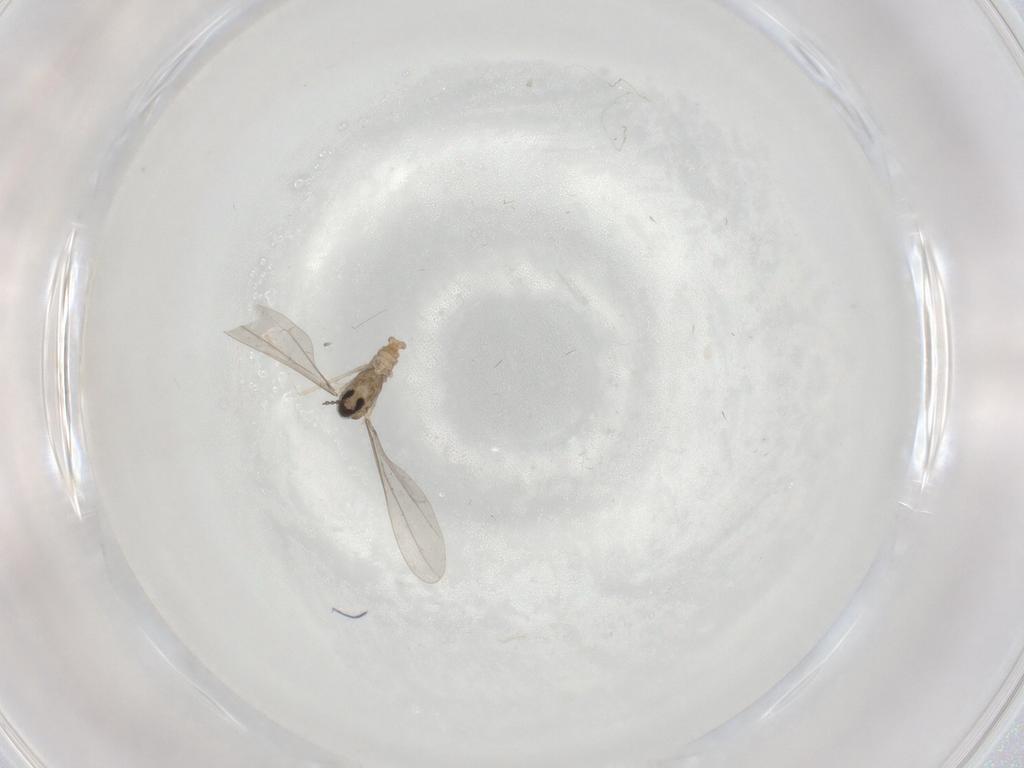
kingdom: Animalia
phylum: Arthropoda
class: Insecta
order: Diptera
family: Cecidomyiidae
